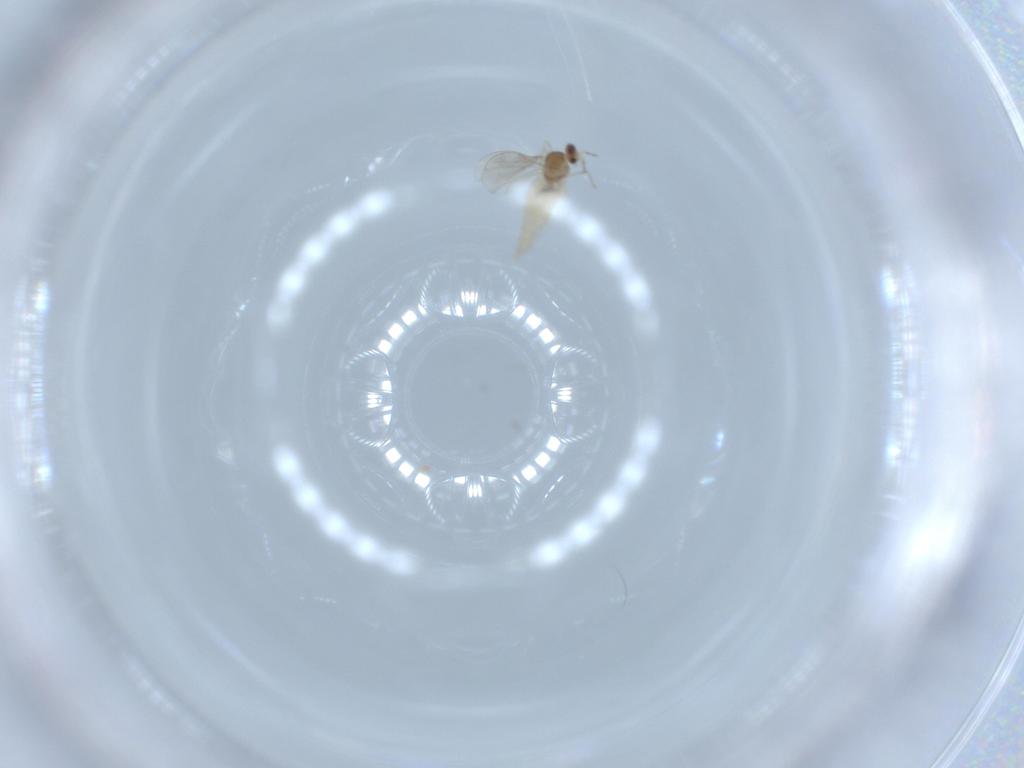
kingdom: Animalia
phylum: Arthropoda
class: Insecta
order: Diptera
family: Cecidomyiidae
